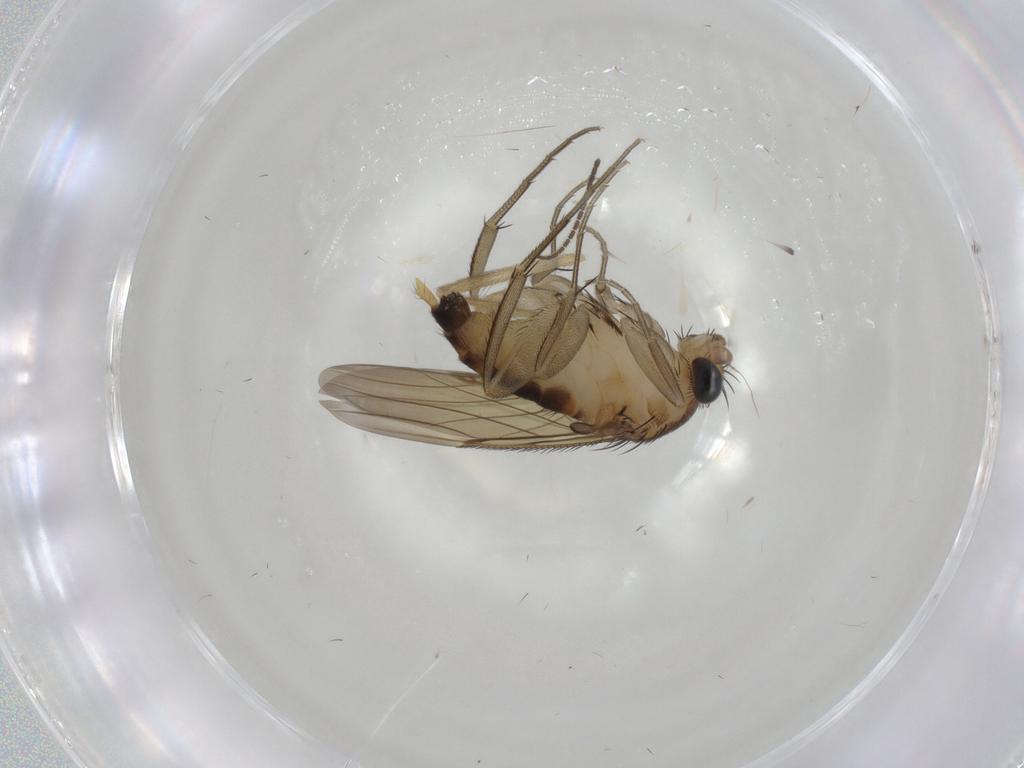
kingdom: Animalia
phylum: Arthropoda
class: Insecta
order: Diptera
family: Chironomidae
